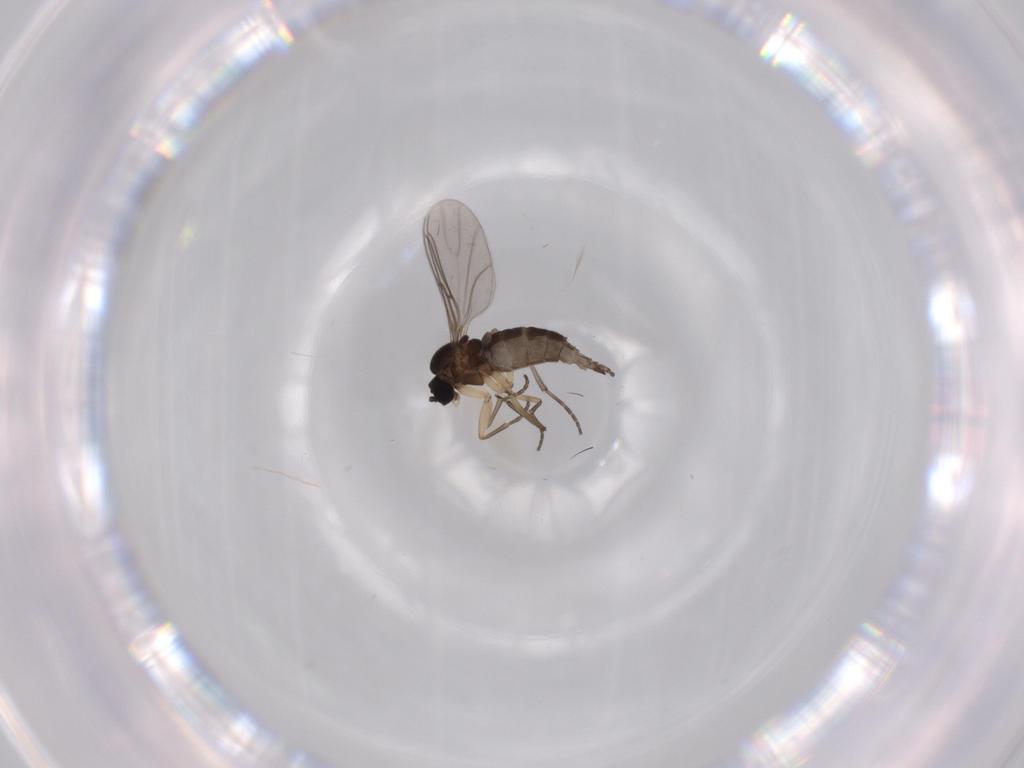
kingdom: Animalia
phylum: Arthropoda
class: Insecta
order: Diptera
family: Sciaridae
